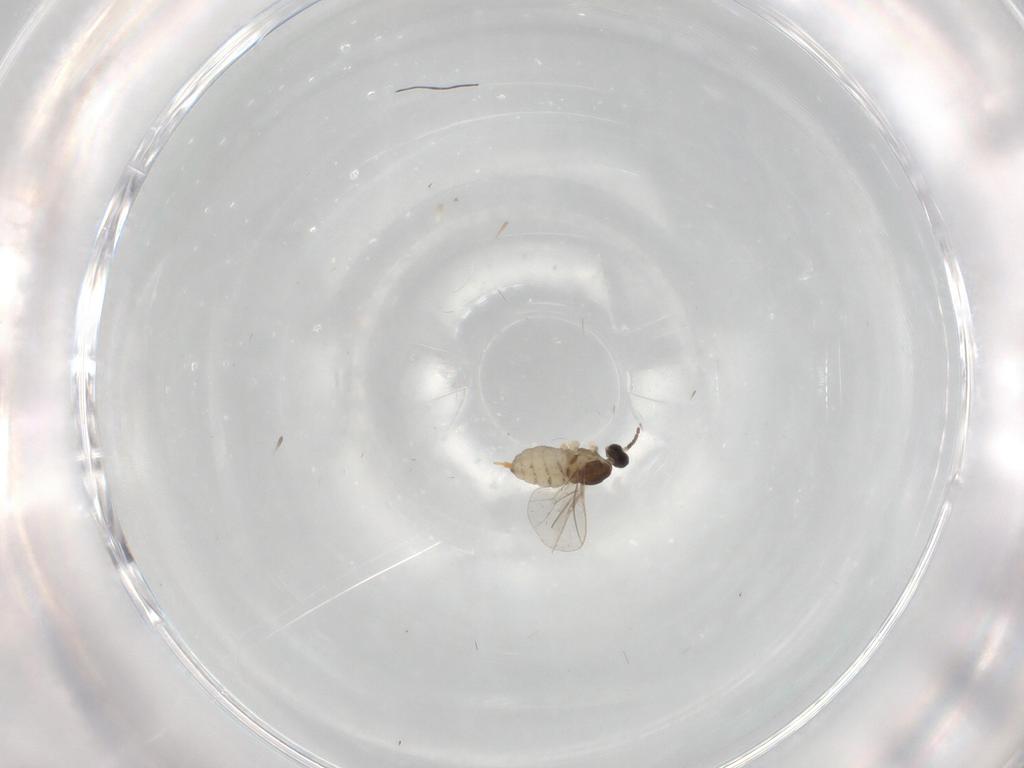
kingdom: Animalia
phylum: Arthropoda
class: Insecta
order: Diptera
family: Cecidomyiidae
